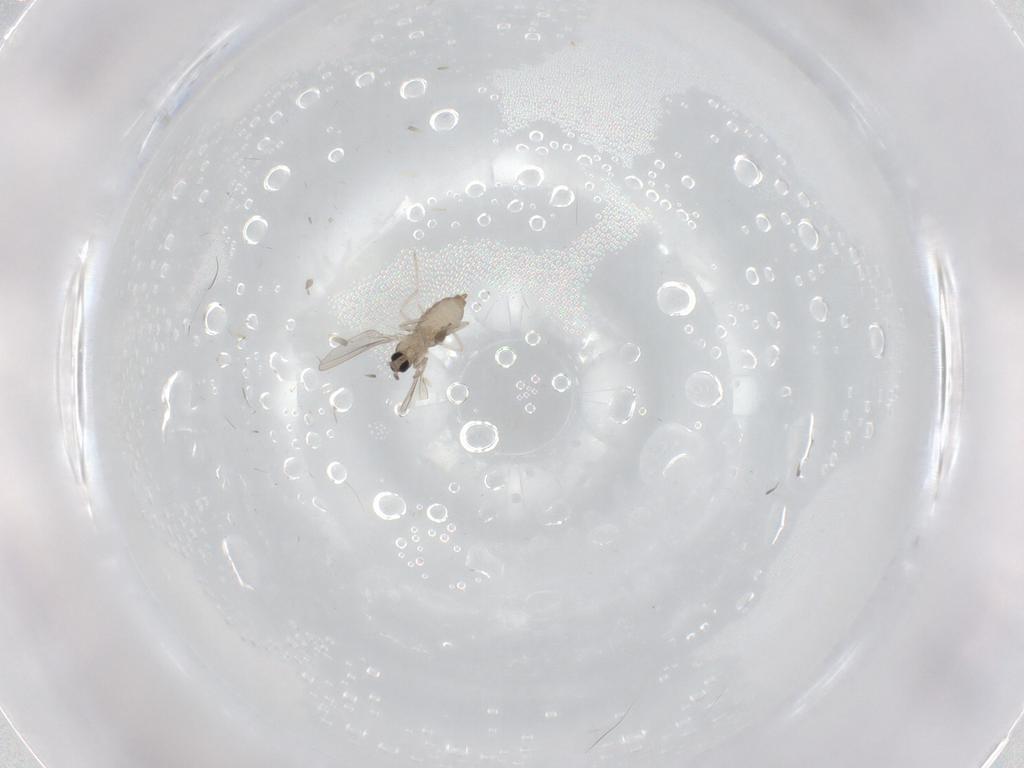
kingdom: Animalia
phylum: Arthropoda
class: Insecta
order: Diptera
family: Cecidomyiidae
